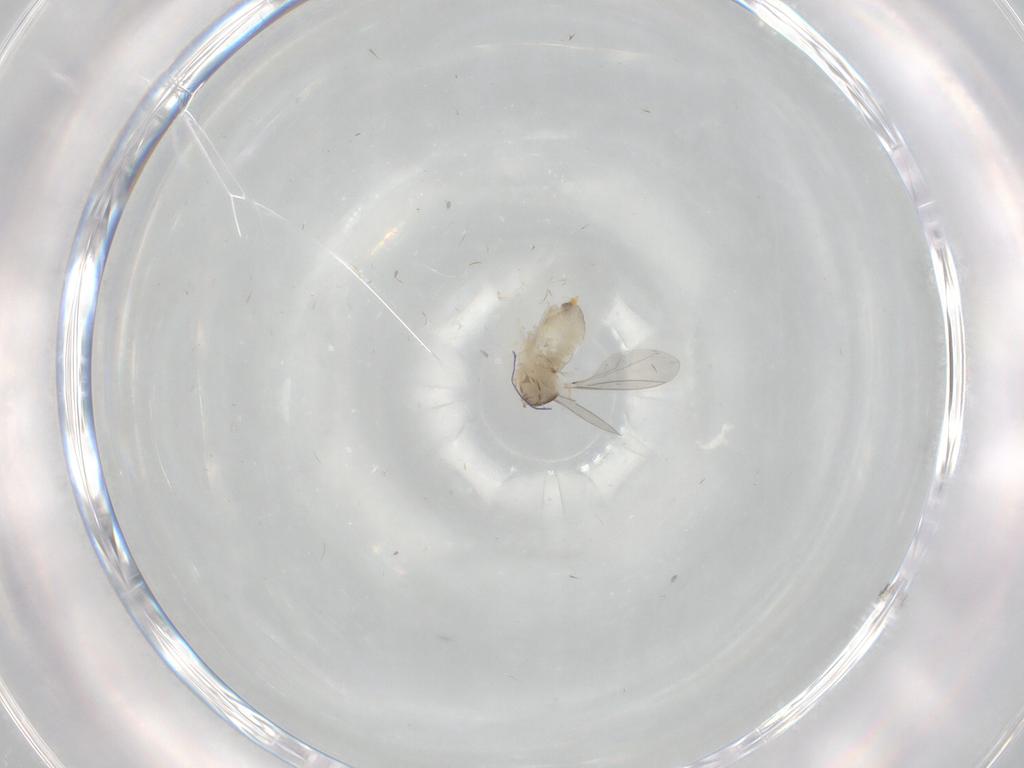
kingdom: Animalia
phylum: Arthropoda
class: Insecta
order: Diptera
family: Cecidomyiidae
